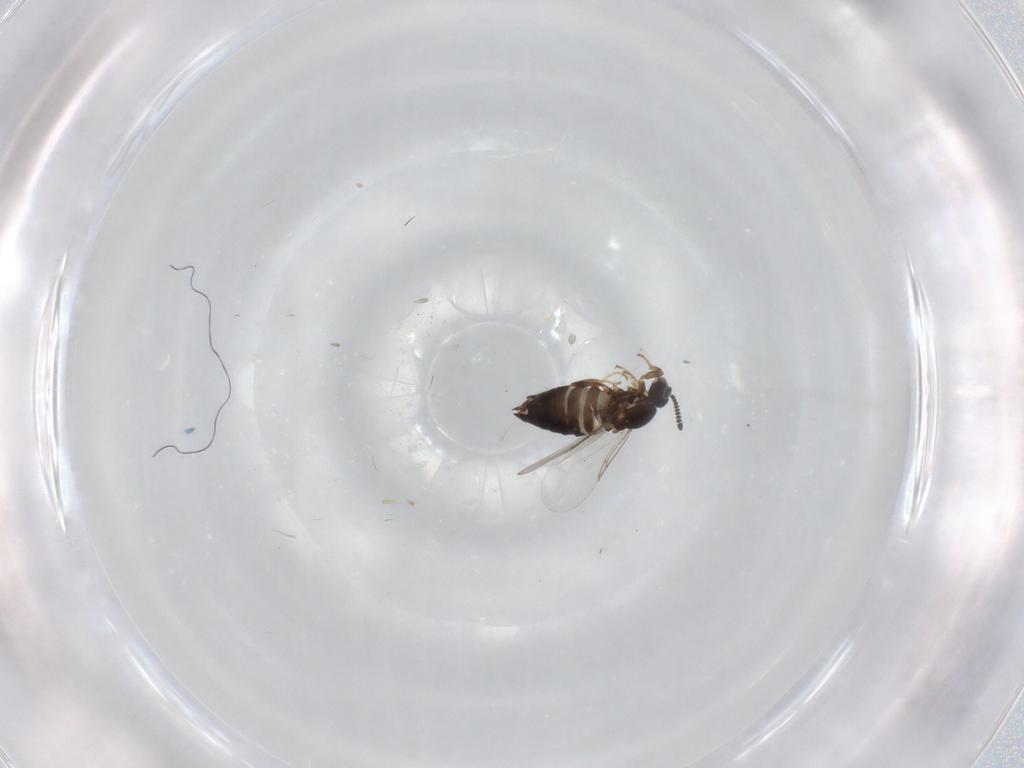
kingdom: Animalia
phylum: Arthropoda
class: Insecta
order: Diptera
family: Scatopsidae
